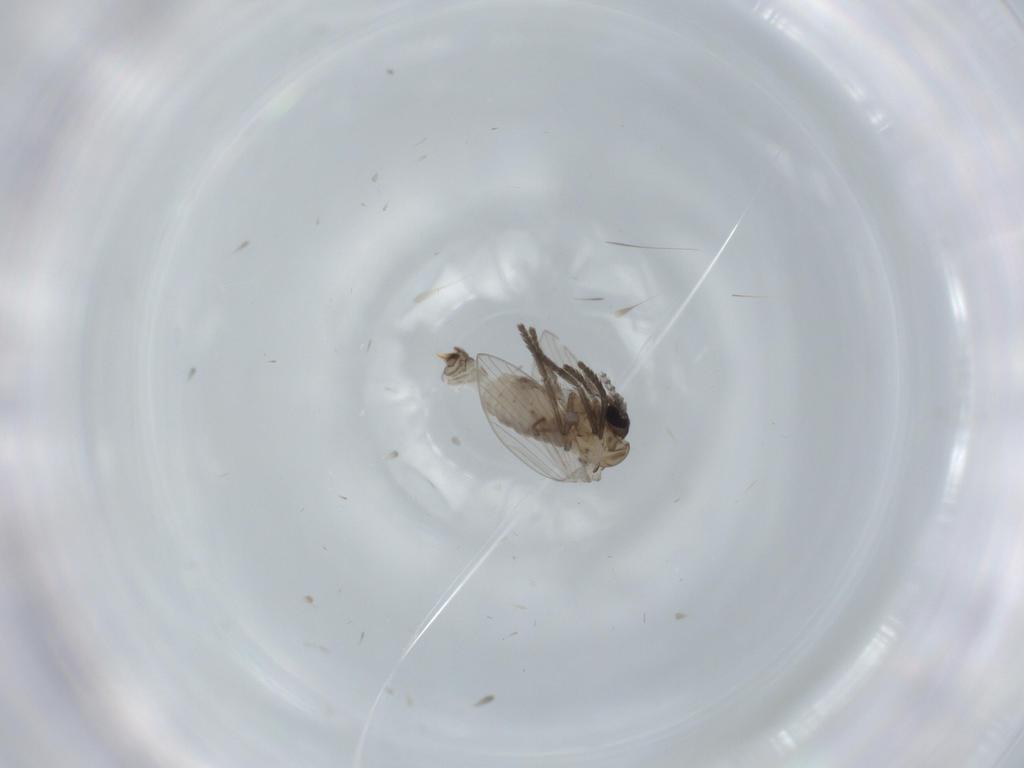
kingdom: Animalia
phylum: Arthropoda
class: Insecta
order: Diptera
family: Psychodidae
